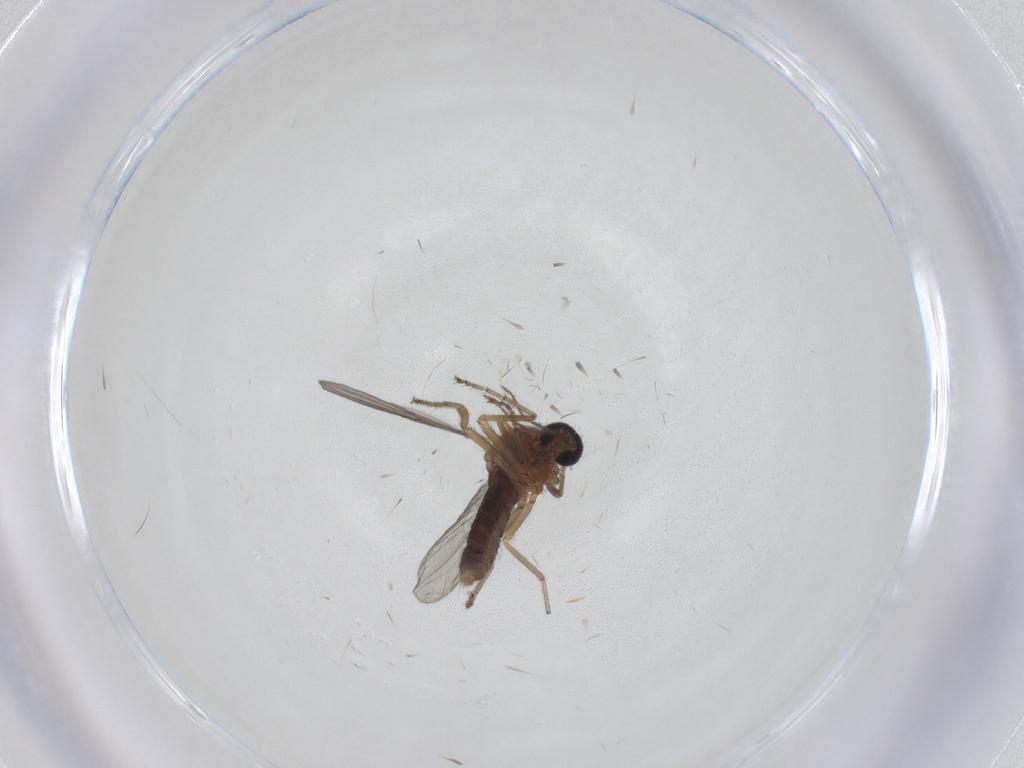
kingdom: Animalia
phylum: Arthropoda
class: Insecta
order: Diptera
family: Ceratopogonidae
